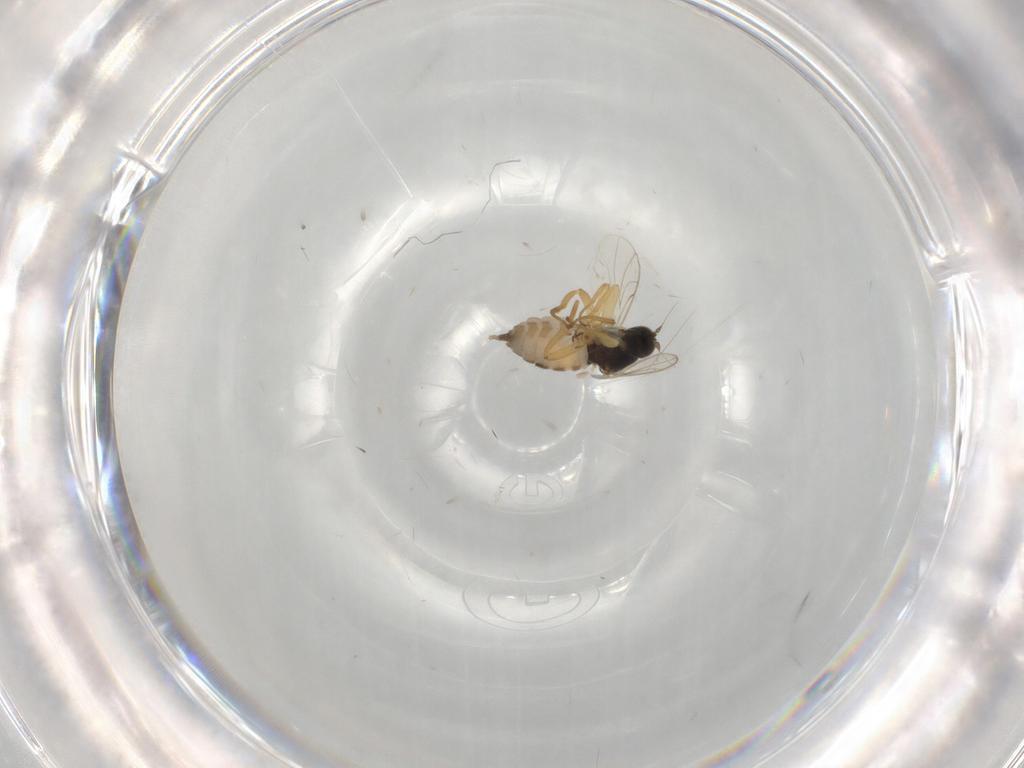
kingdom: Animalia
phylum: Arthropoda
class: Insecta
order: Diptera
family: Hybotidae
